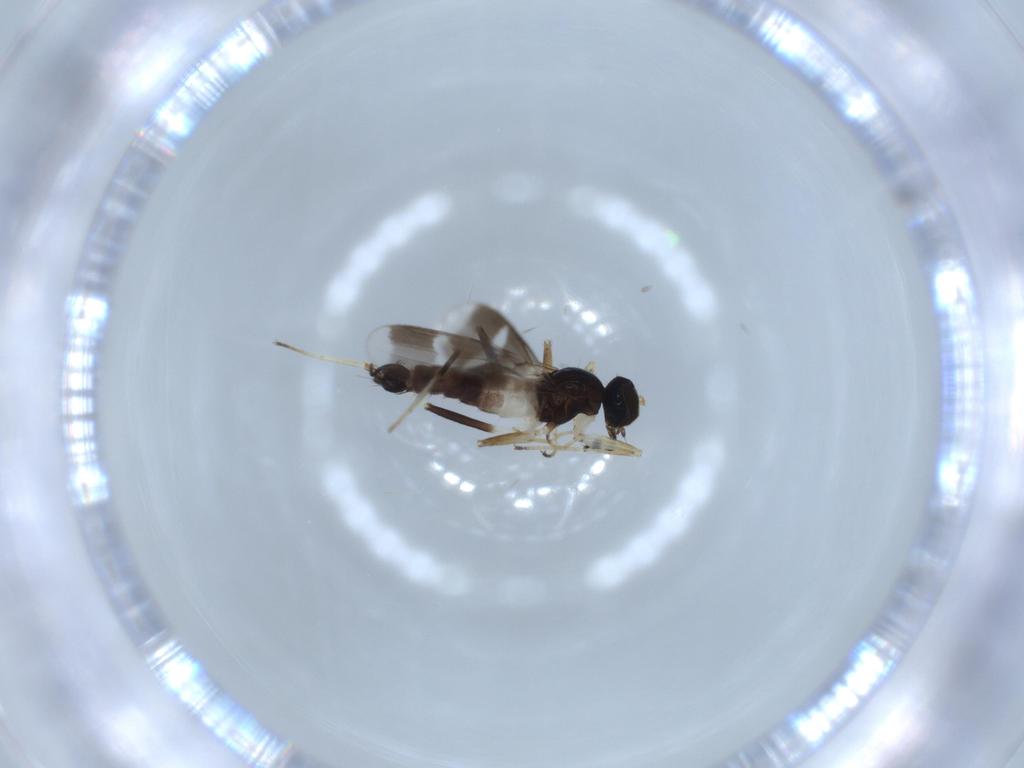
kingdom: Animalia
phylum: Arthropoda
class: Insecta
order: Diptera
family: Hybotidae
